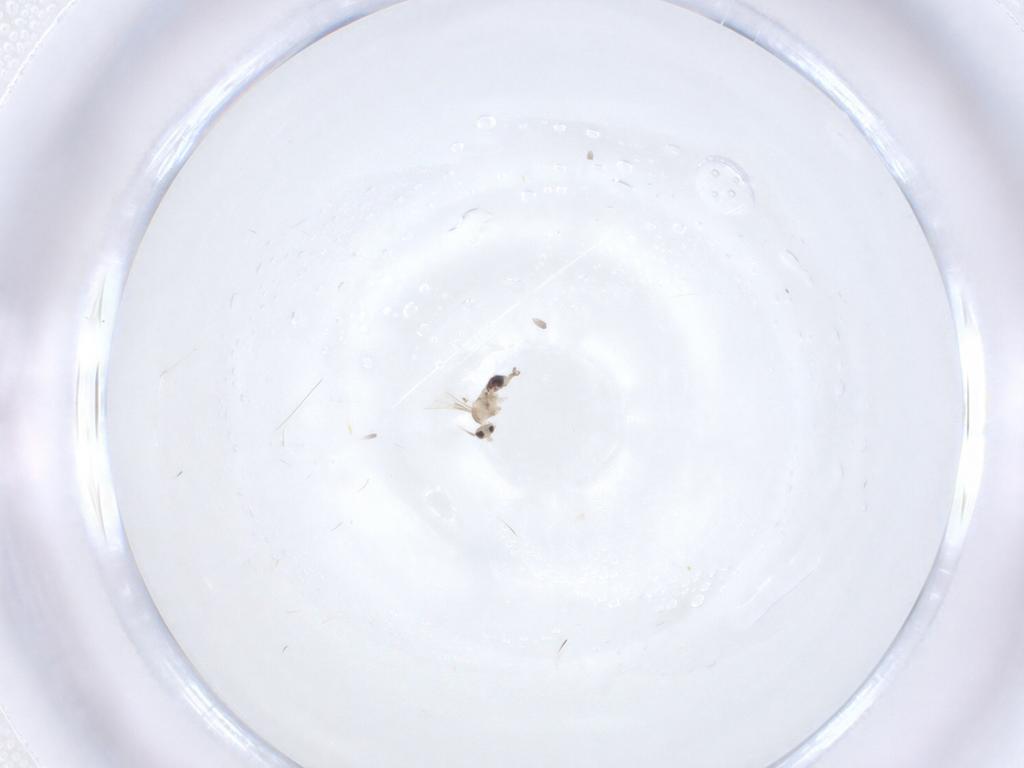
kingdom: Animalia
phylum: Arthropoda
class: Insecta
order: Diptera
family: Cecidomyiidae
